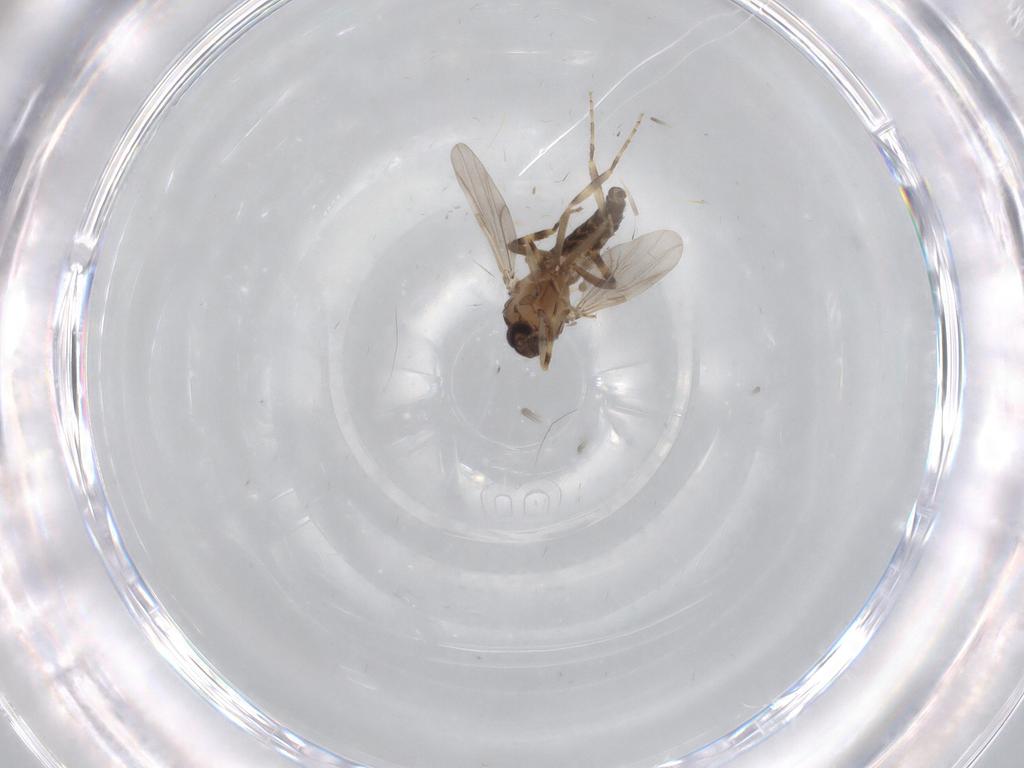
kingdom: Animalia
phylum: Arthropoda
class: Insecta
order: Diptera
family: Ceratopogonidae
